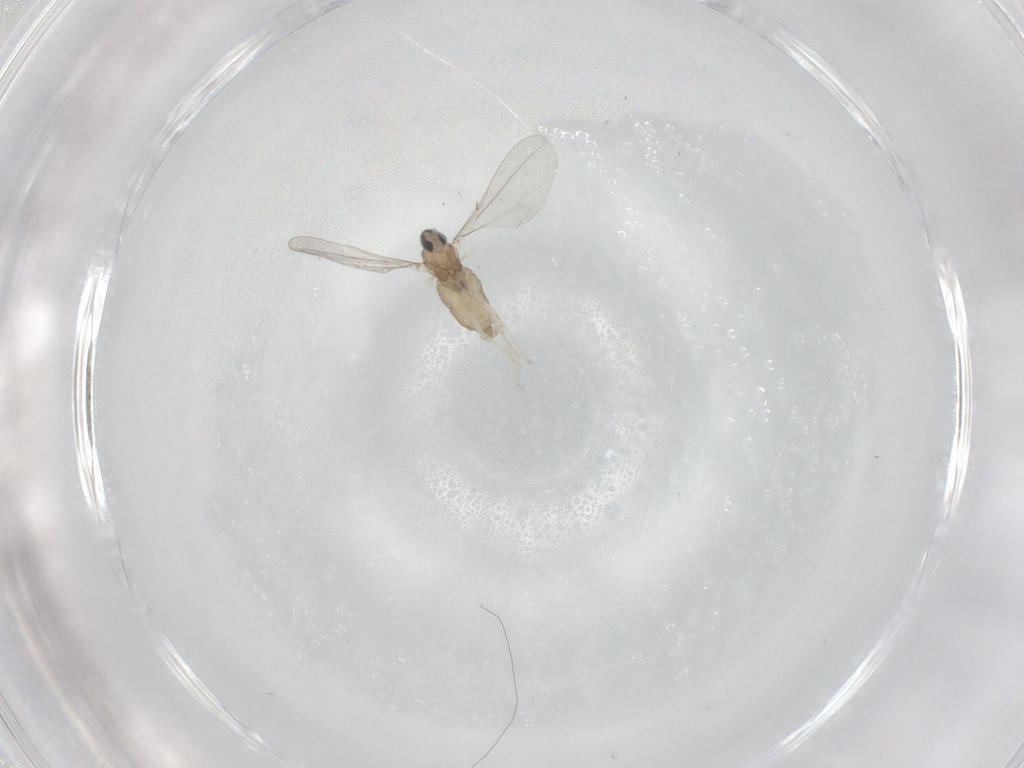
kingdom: Animalia
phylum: Arthropoda
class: Insecta
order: Diptera
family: Cecidomyiidae
